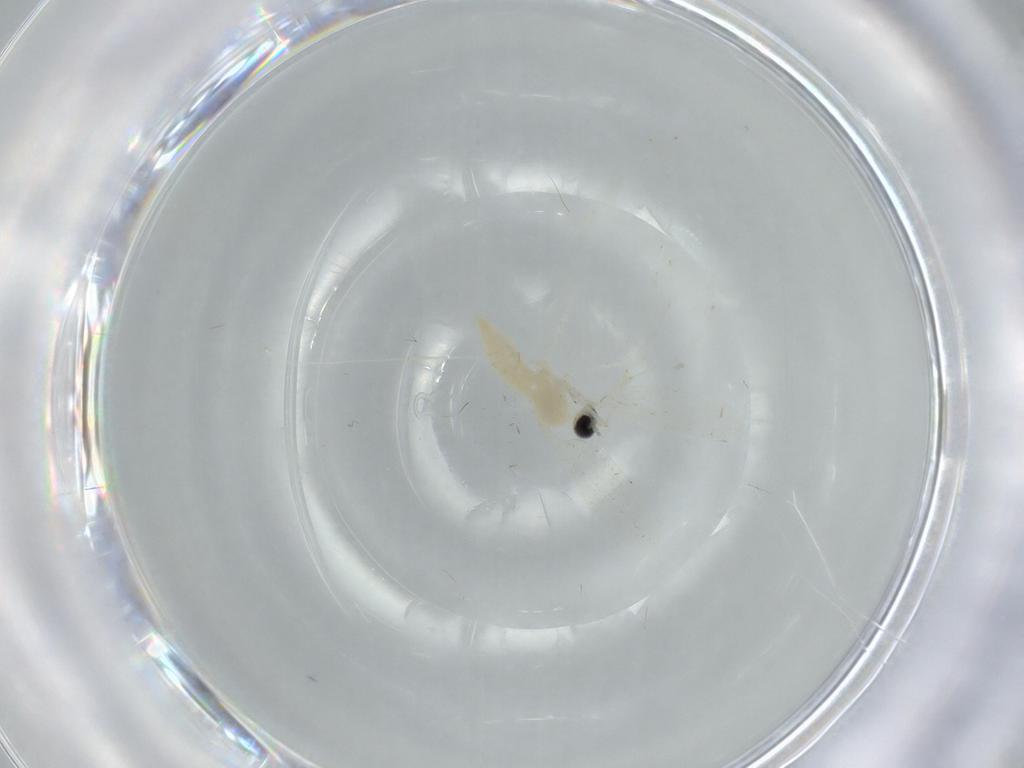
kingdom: Animalia
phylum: Arthropoda
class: Insecta
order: Diptera
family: Cecidomyiidae
